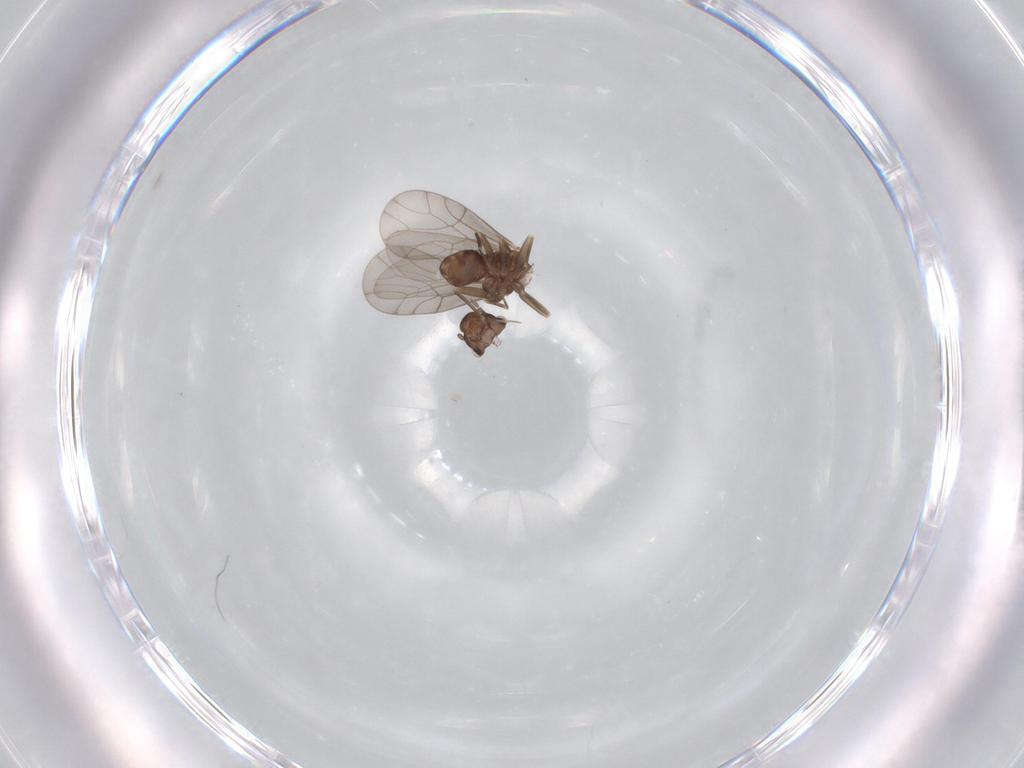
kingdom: Animalia
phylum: Arthropoda
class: Insecta
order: Psocodea
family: Lepidopsocidae
